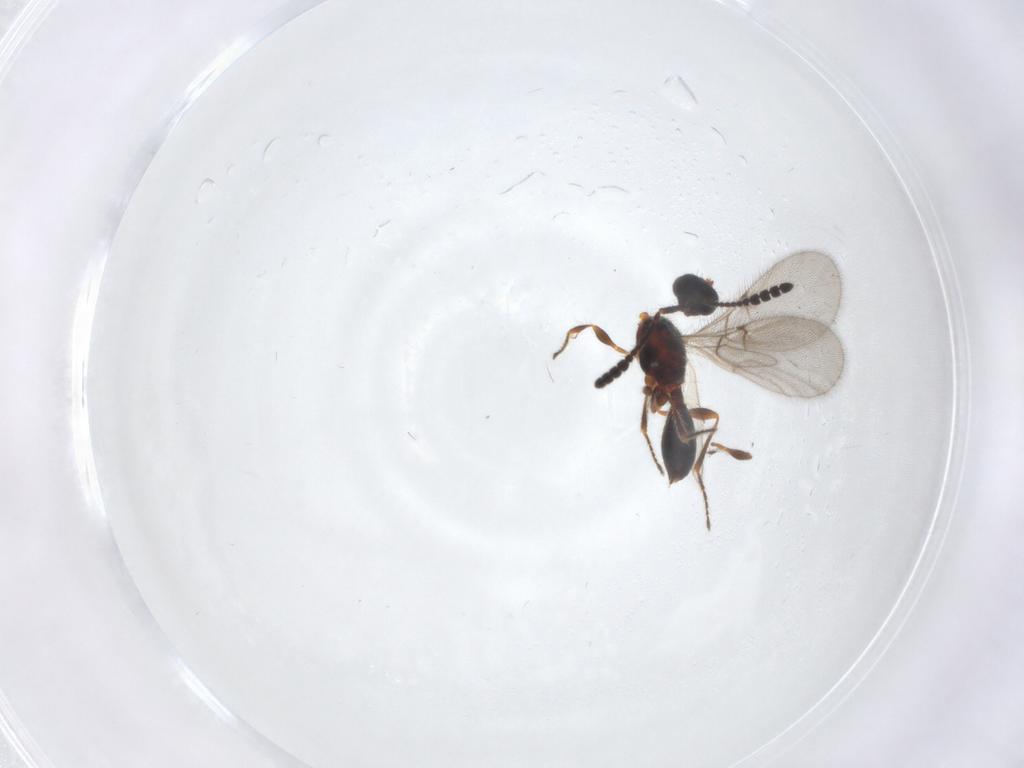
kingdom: Animalia
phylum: Arthropoda
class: Insecta
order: Hymenoptera
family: Diapriidae
